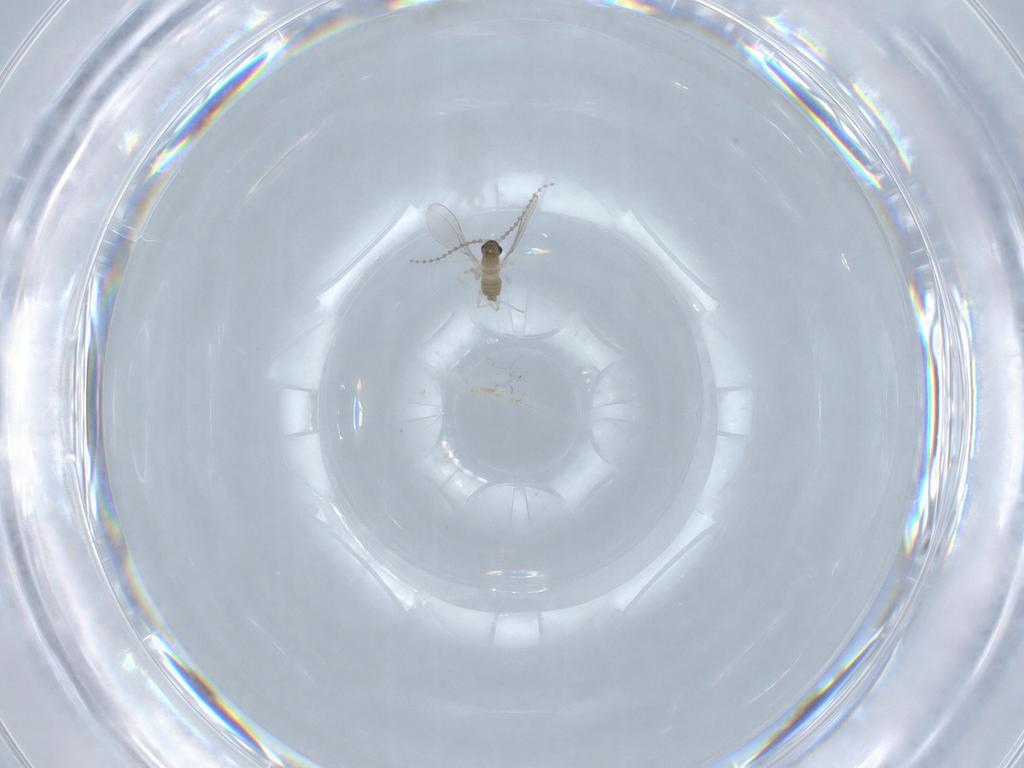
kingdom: Animalia
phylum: Arthropoda
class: Insecta
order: Diptera
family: Cecidomyiidae
